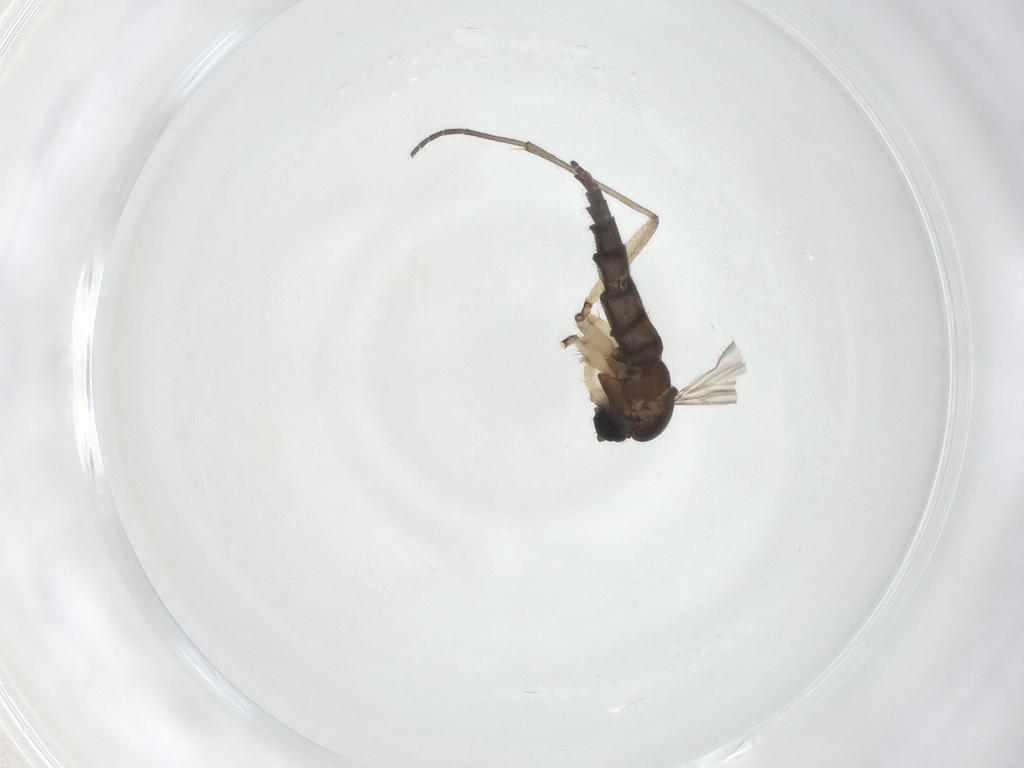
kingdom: Animalia
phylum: Arthropoda
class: Insecta
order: Diptera
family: Sciaridae
